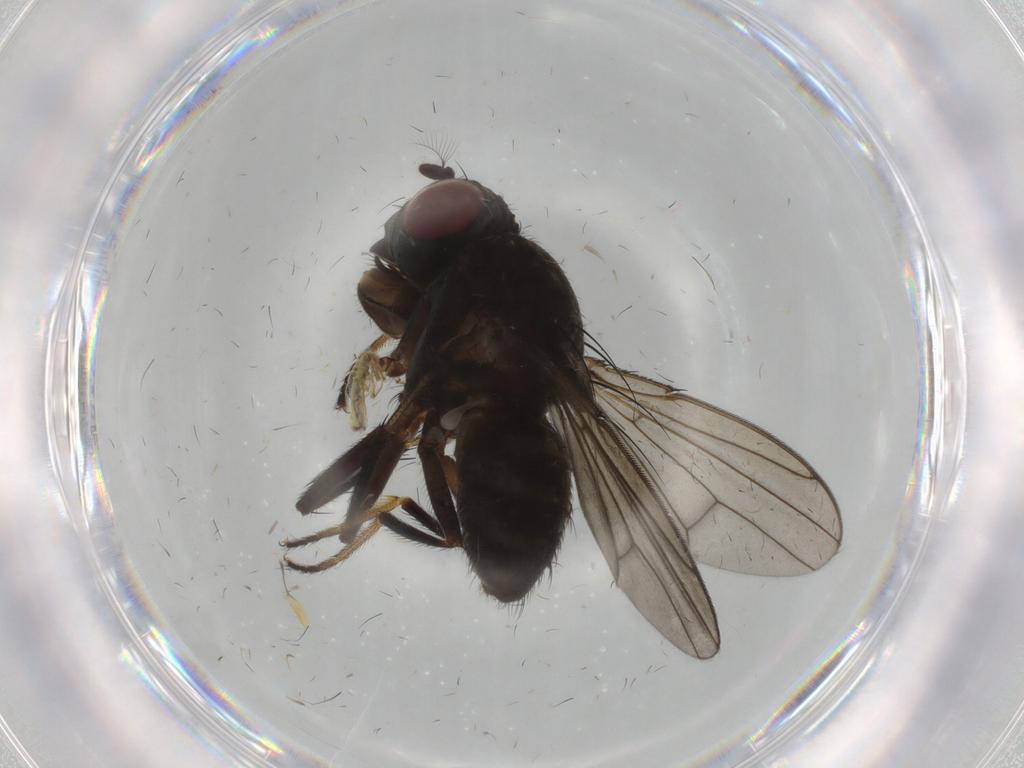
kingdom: Animalia
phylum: Arthropoda
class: Insecta
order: Diptera
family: Ephydridae
